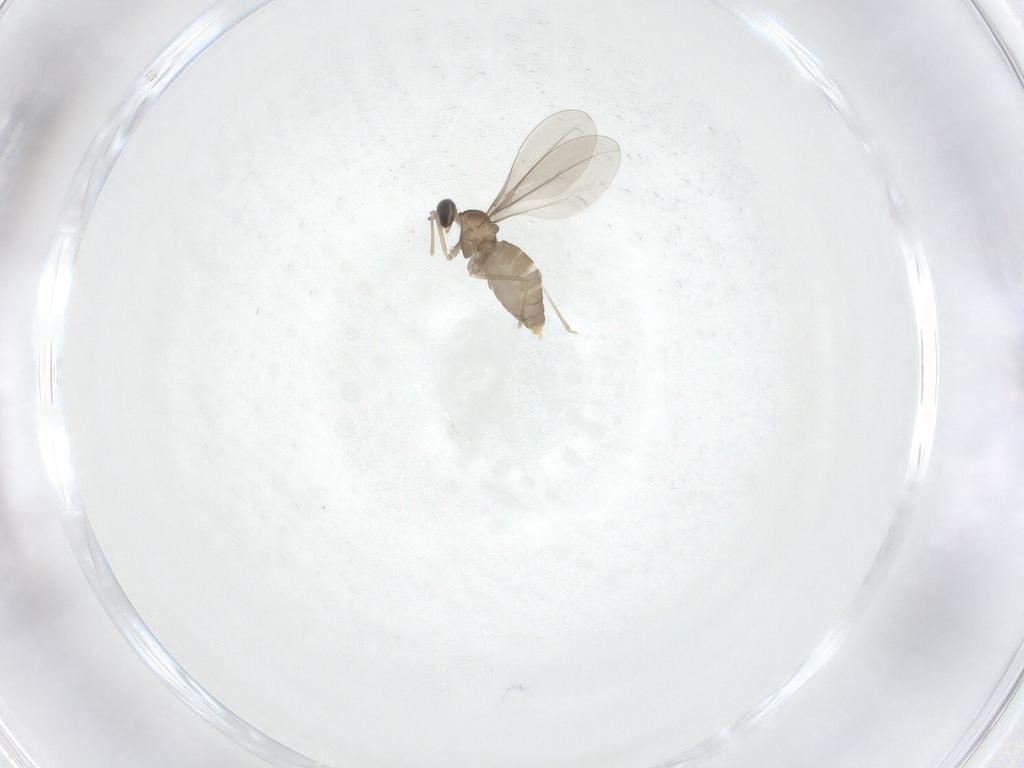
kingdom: Animalia
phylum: Arthropoda
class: Insecta
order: Diptera
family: Cecidomyiidae
